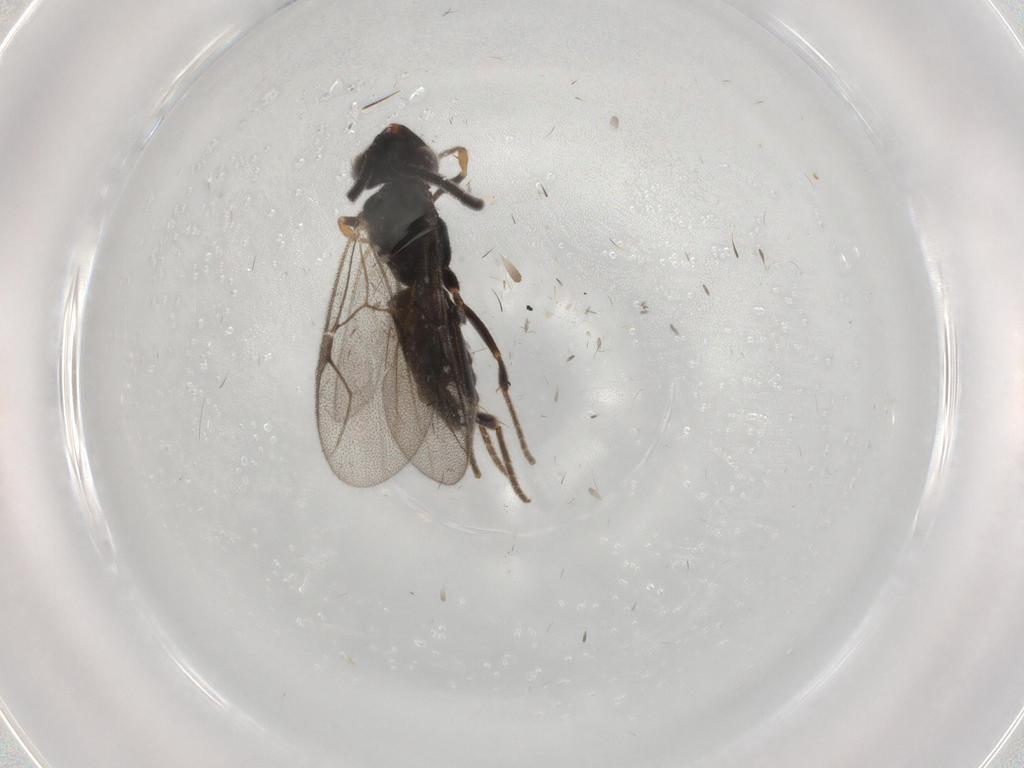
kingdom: Animalia
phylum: Arthropoda
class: Insecta
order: Hymenoptera
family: Dryinidae
